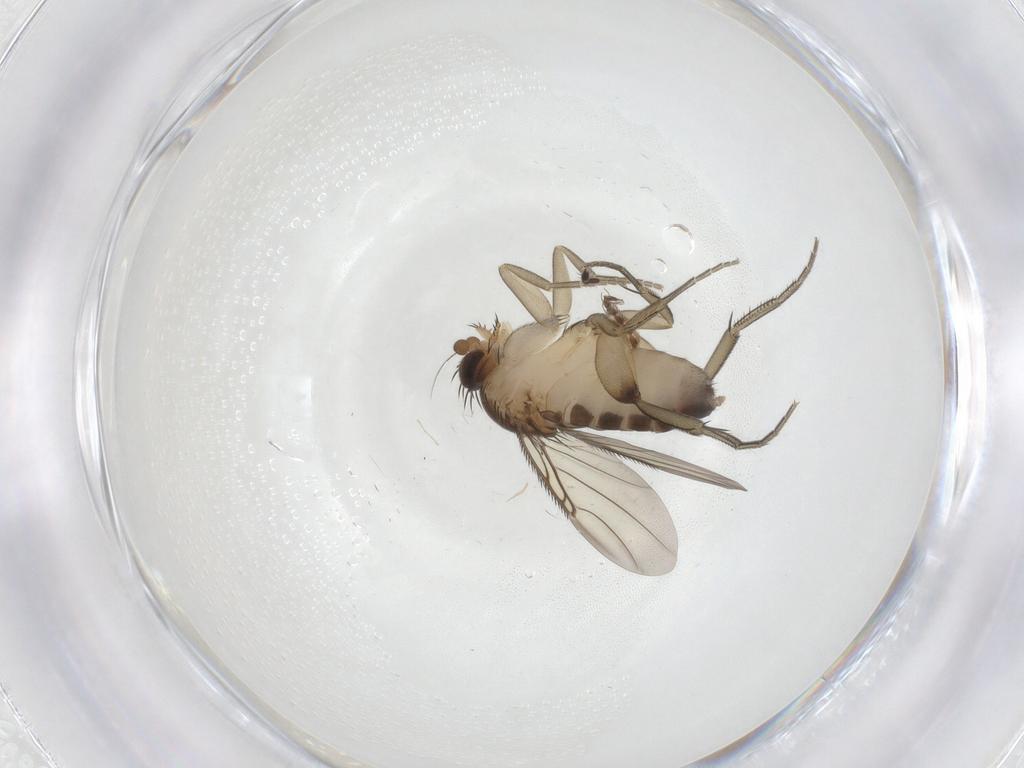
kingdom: Animalia
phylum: Arthropoda
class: Insecta
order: Diptera
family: Phoridae
